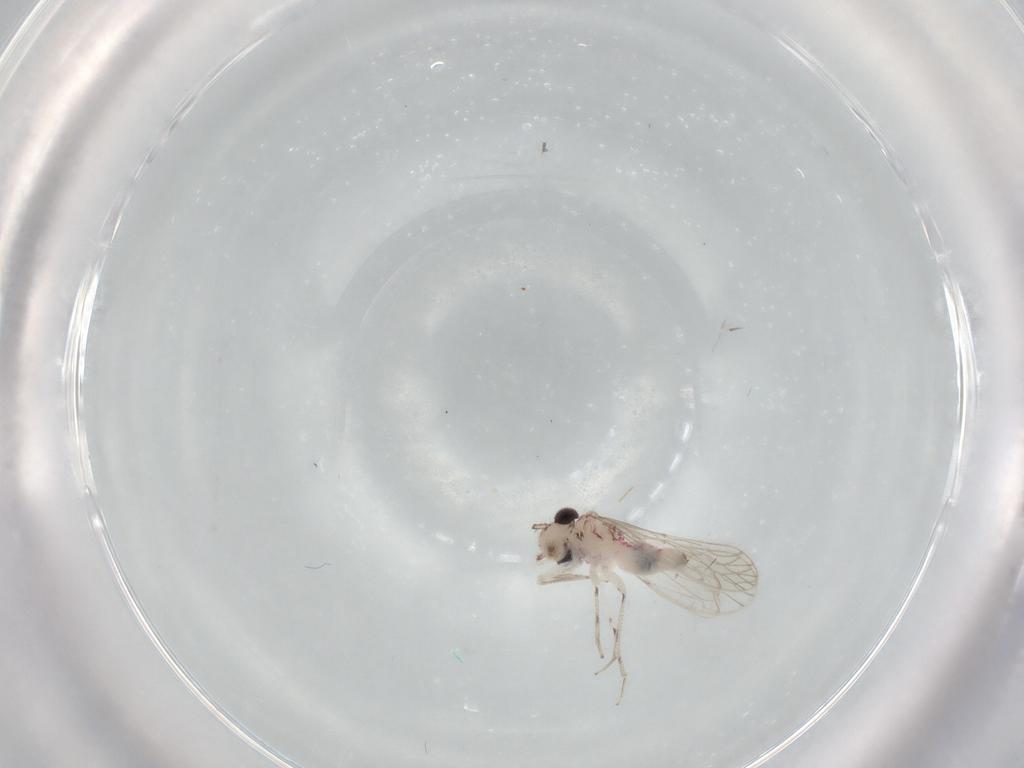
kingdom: Animalia
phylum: Arthropoda
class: Insecta
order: Psocodea
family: Caeciliusidae
